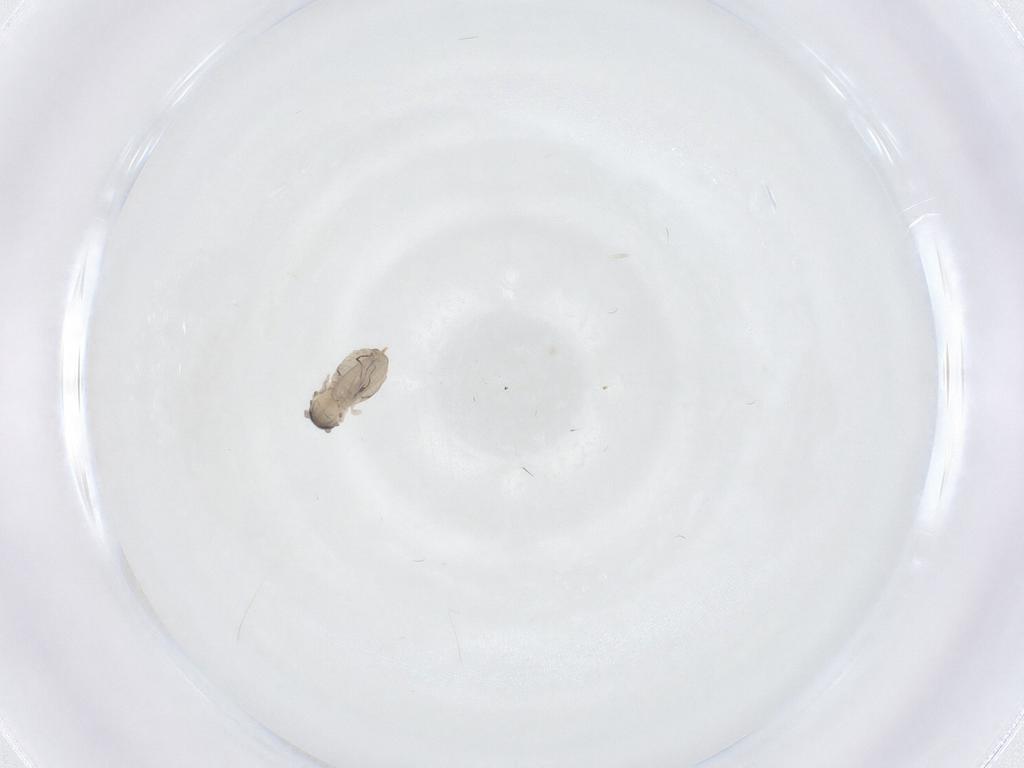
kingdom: Animalia
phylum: Arthropoda
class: Insecta
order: Diptera
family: Psychodidae
